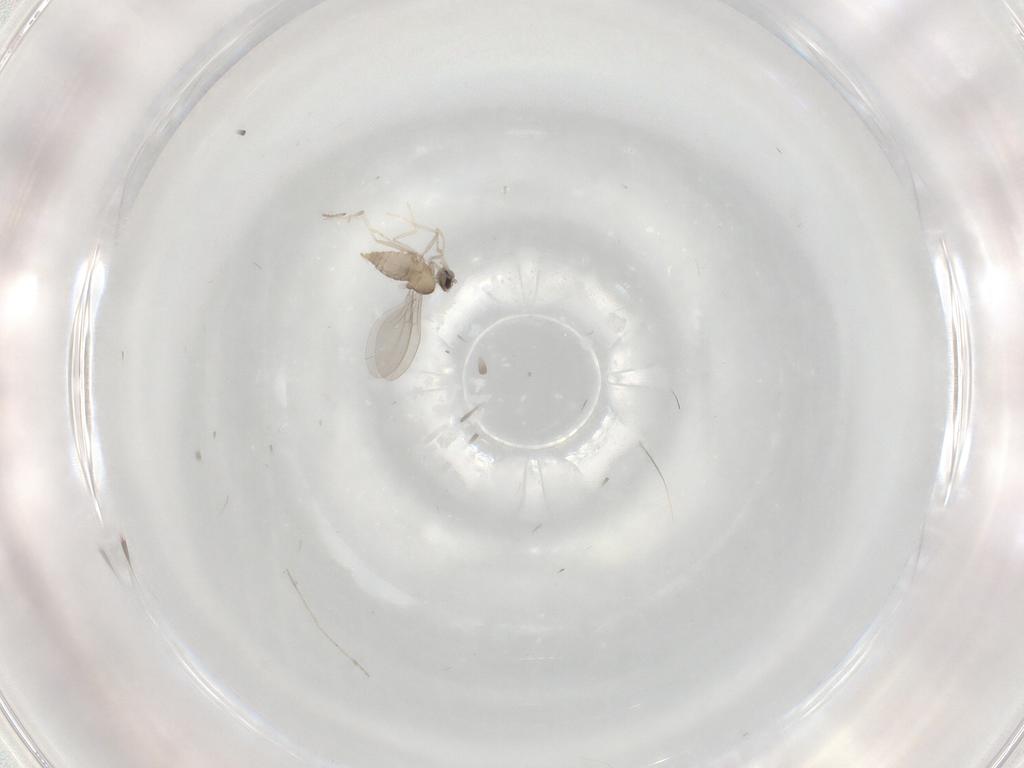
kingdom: Animalia
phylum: Arthropoda
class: Insecta
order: Diptera
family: Cecidomyiidae
